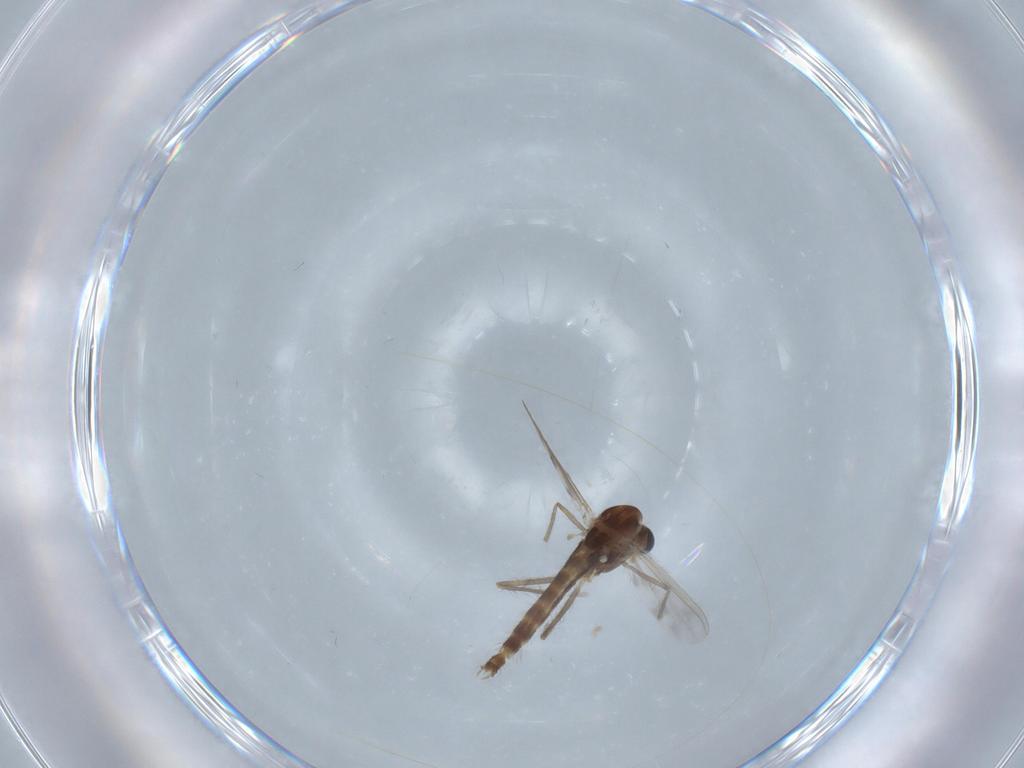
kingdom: Animalia
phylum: Arthropoda
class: Insecta
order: Diptera
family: Chironomidae
